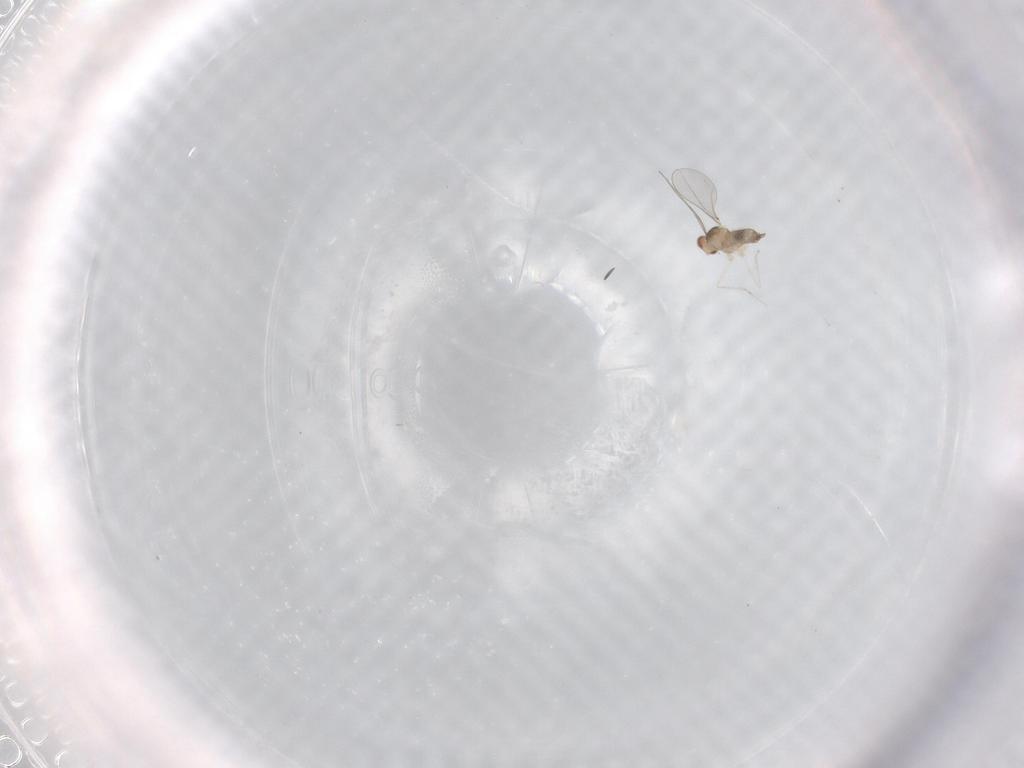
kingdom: Animalia
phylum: Arthropoda
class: Insecta
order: Diptera
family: Cecidomyiidae
